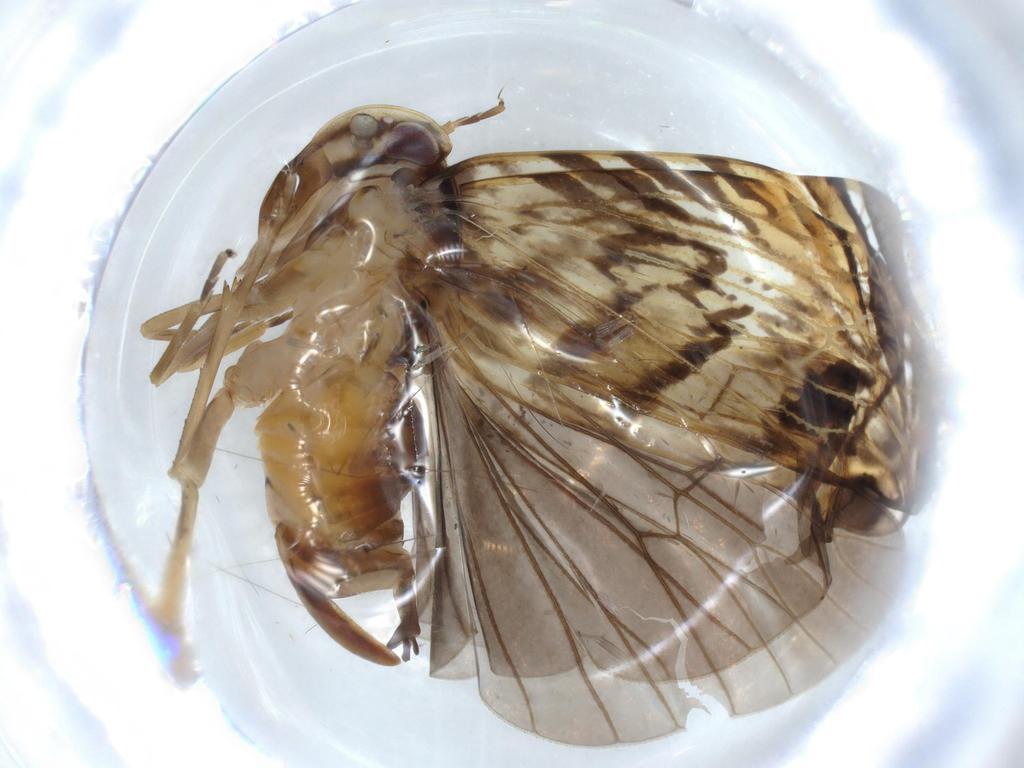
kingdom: Animalia
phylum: Arthropoda
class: Insecta
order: Hemiptera
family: Cixiidae
